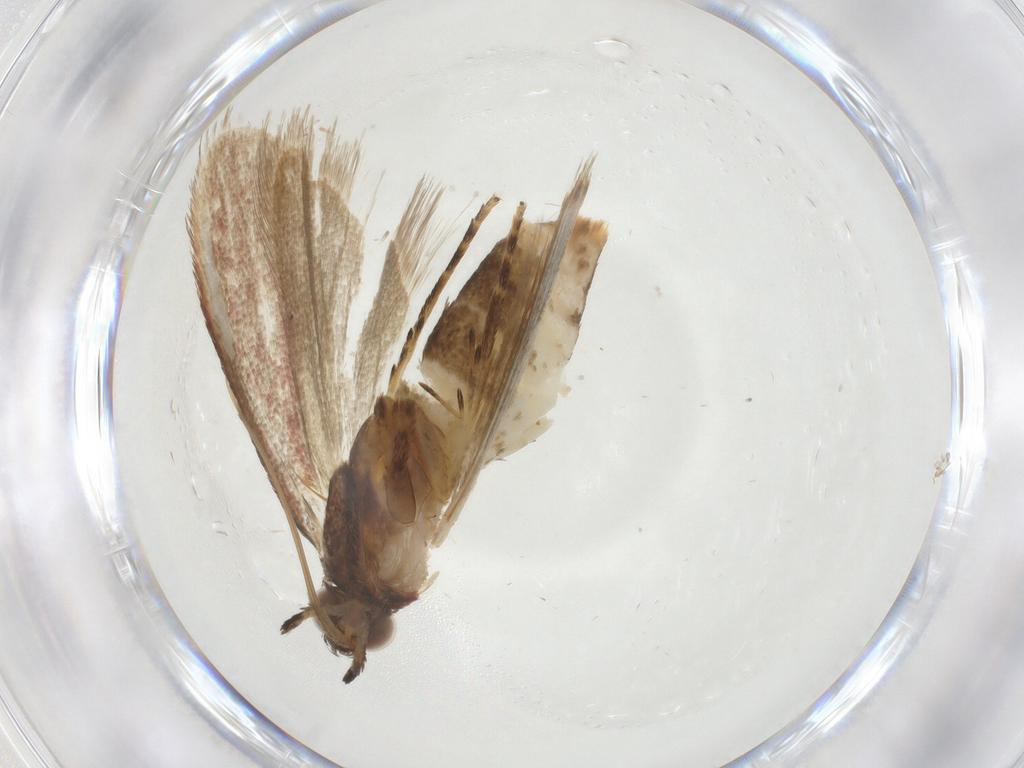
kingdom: Animalia
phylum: Arthropoda
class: Insecta
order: Lepidoptera
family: Pyralidae
